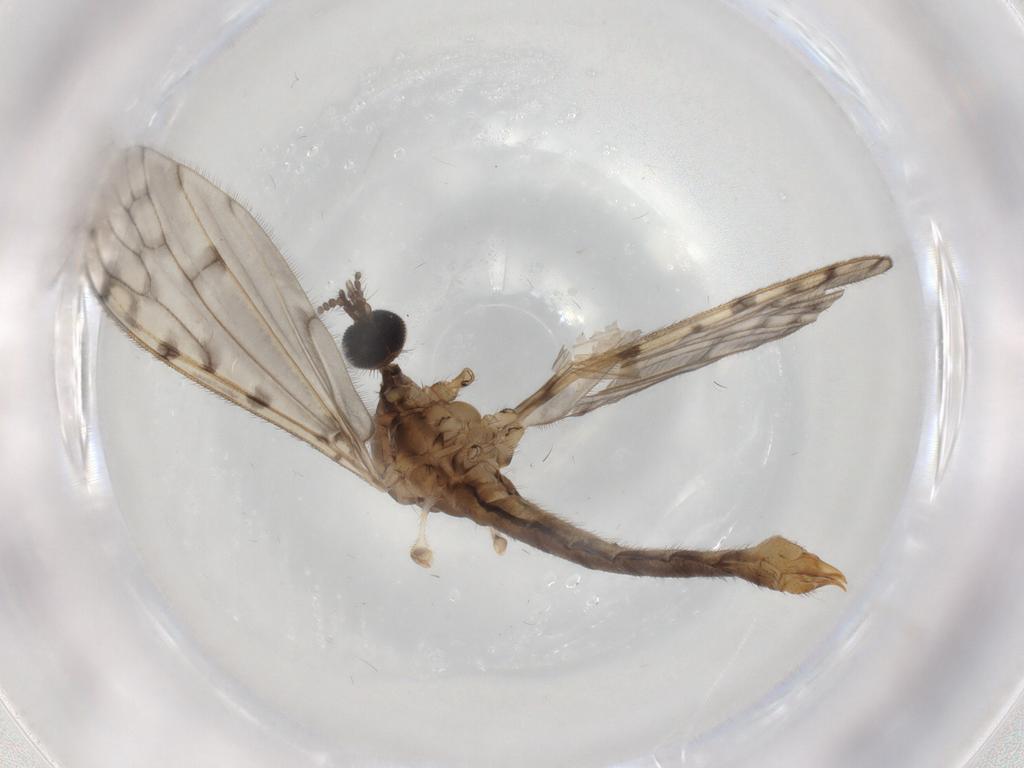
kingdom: Animalia
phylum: Arthropoda
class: Insecta
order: Diptera
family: Dolichopodidae
